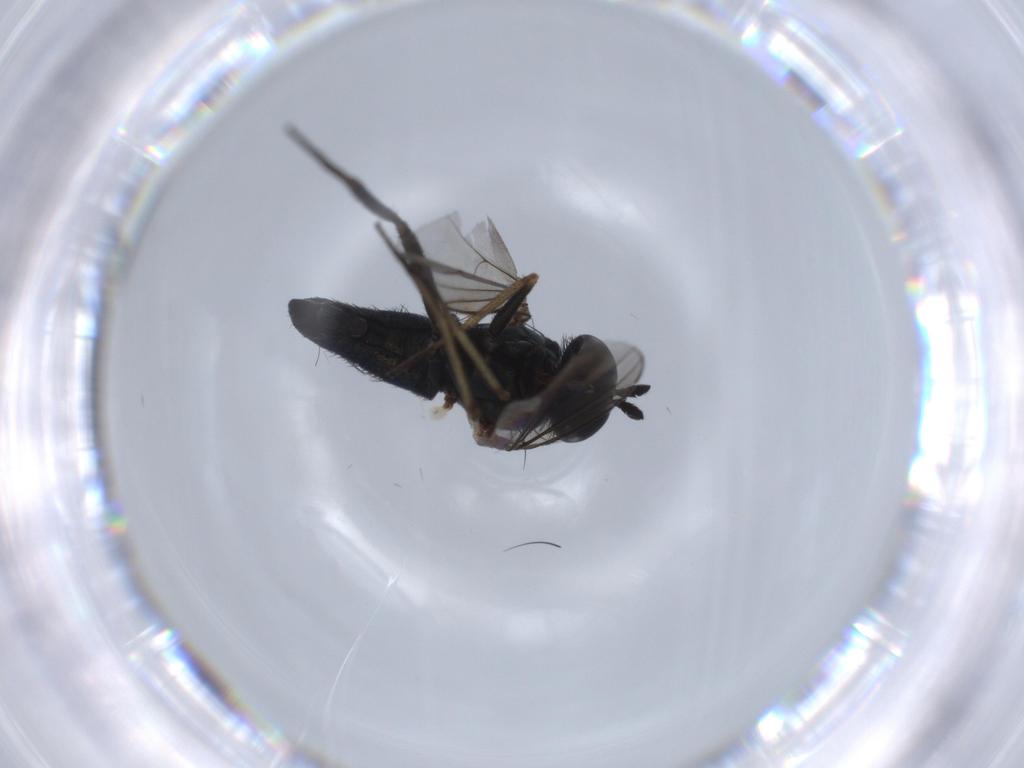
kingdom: Animalia
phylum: Arthropoda
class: Insecta
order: Diptera
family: Dolichopodidae
